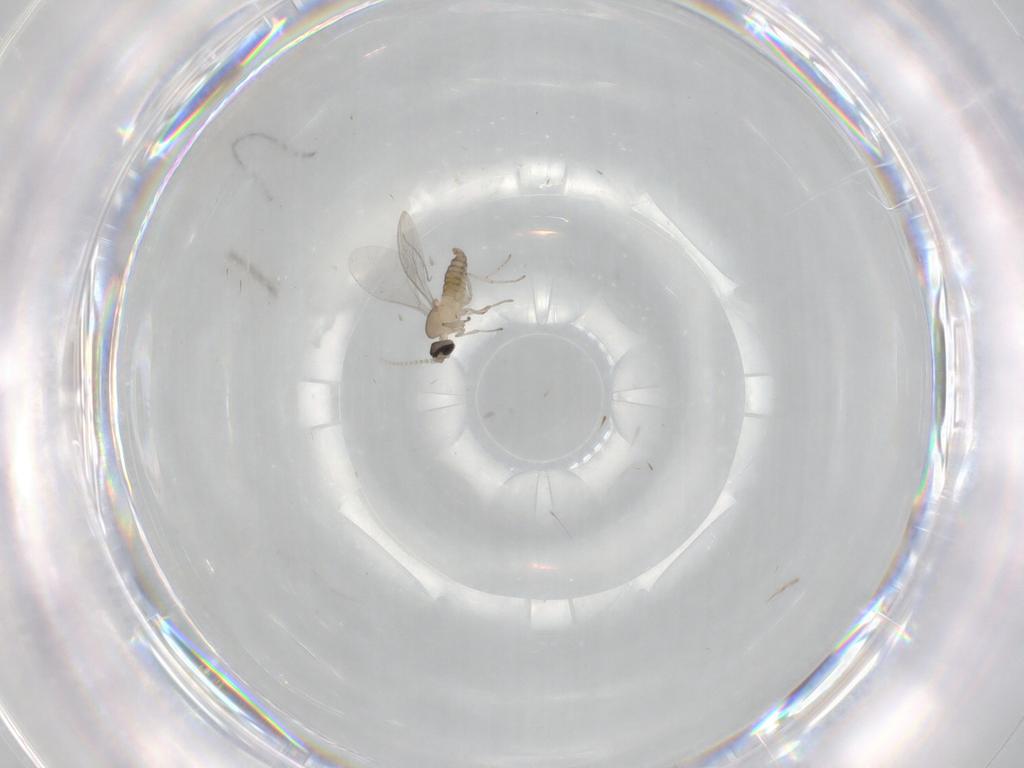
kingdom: Animalia
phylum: Arthropoda
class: Insecta
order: Diptera
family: Cecidomyiidae
